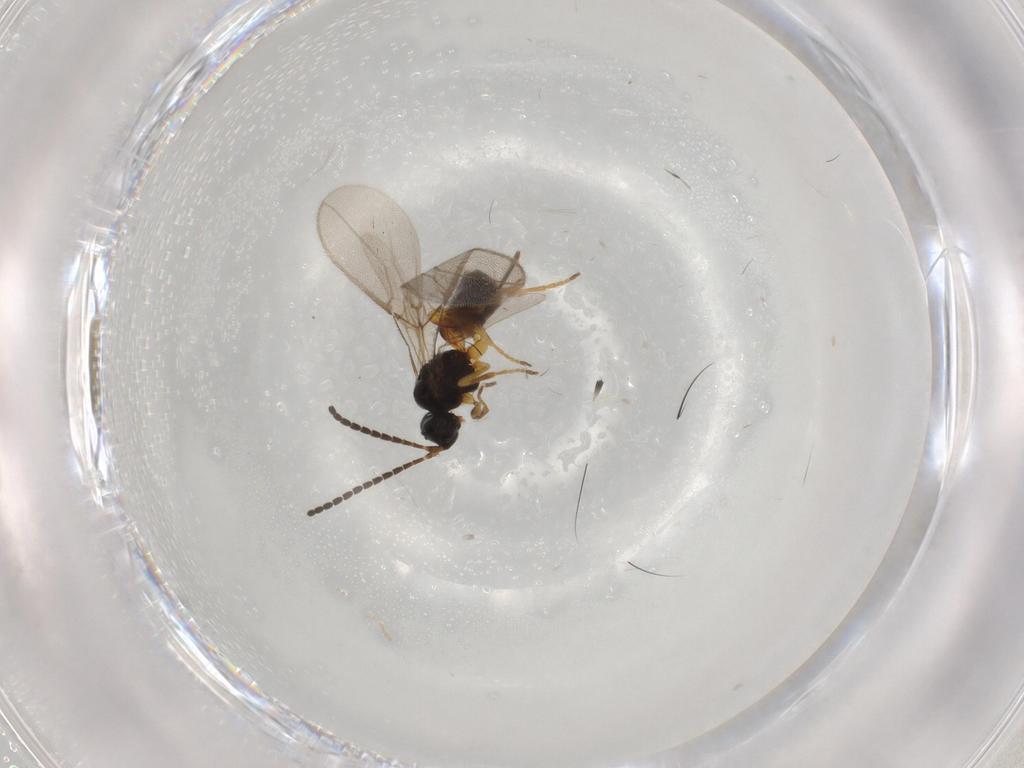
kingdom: Animalia
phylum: Arthropoda
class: Insecta
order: Hymenoptera
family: Braconidae
